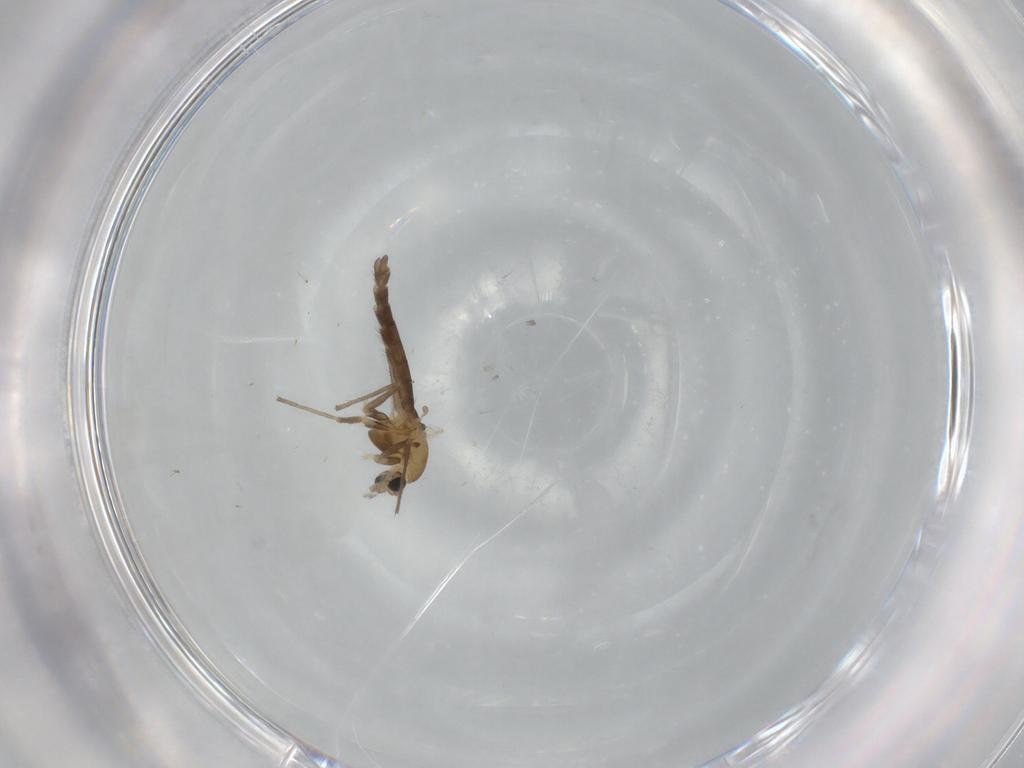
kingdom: Animalia
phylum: Arthropoda
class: Insecta
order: Diptera
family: Chironomidae
